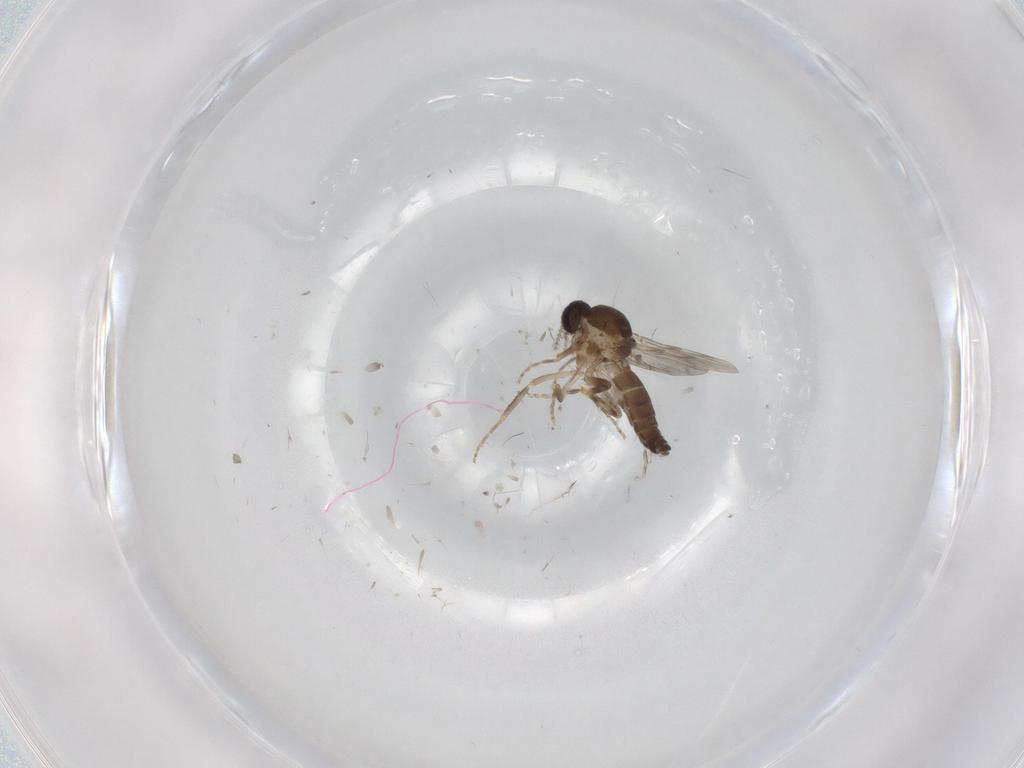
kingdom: Animalia
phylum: Arthropoda
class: Insecta
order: Diptera
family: Ceratopogonidae
